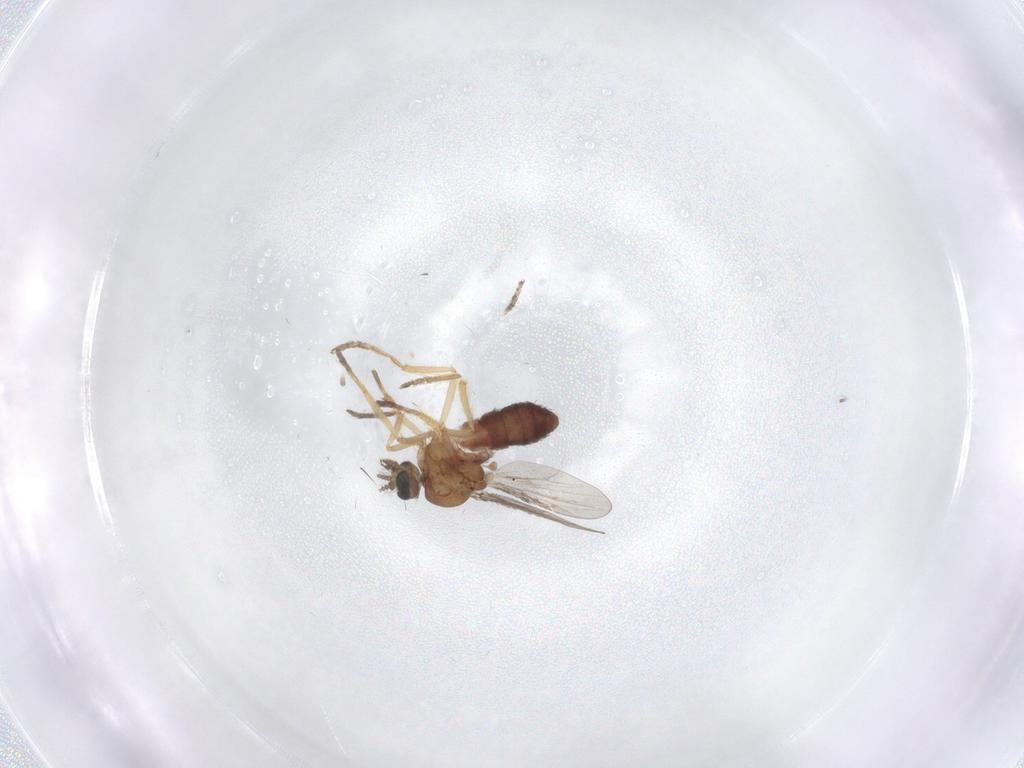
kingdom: Animalia
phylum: Arthropoda
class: Insecta
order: Diptera
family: Ceratopogonidae
